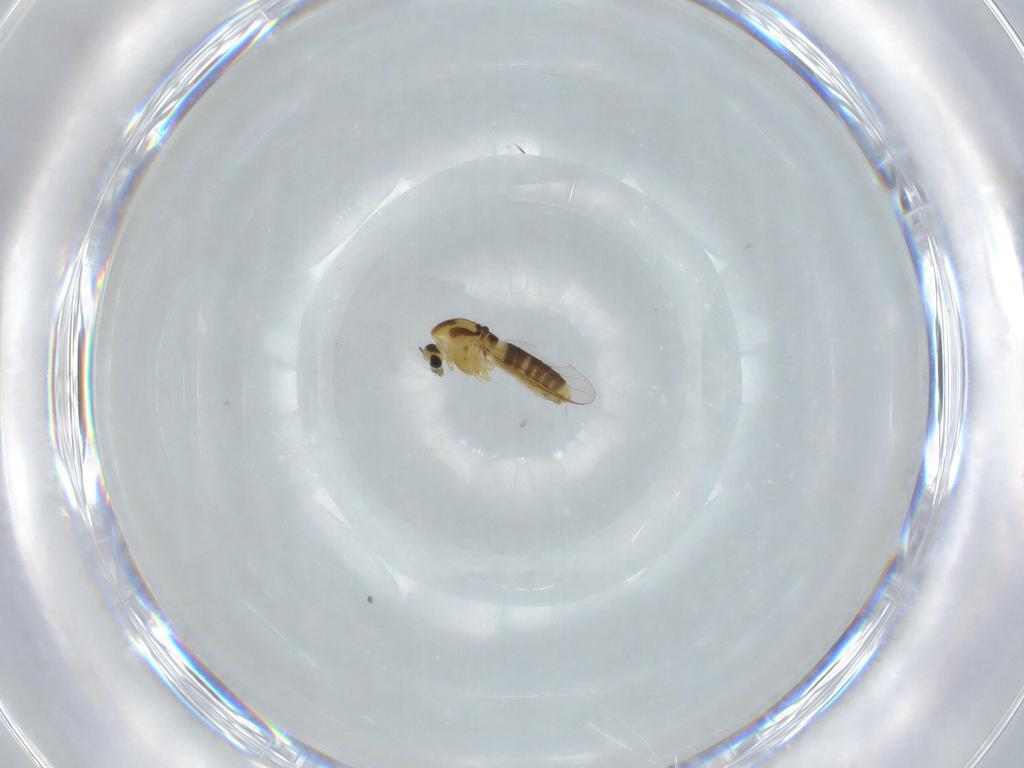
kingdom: Animalia
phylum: Arthropoda
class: Insecta
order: Diptera
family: Chironomidae
